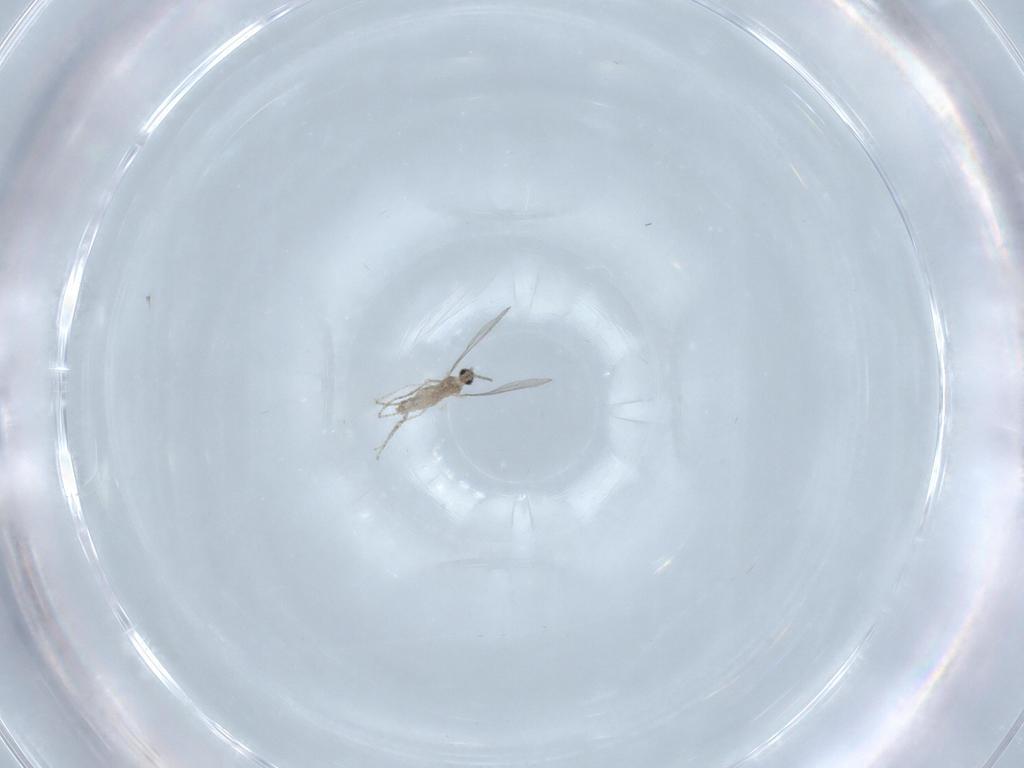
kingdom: Animalia
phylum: Arthropoda
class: Insecta
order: Diptera
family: Cecidomyiidae
